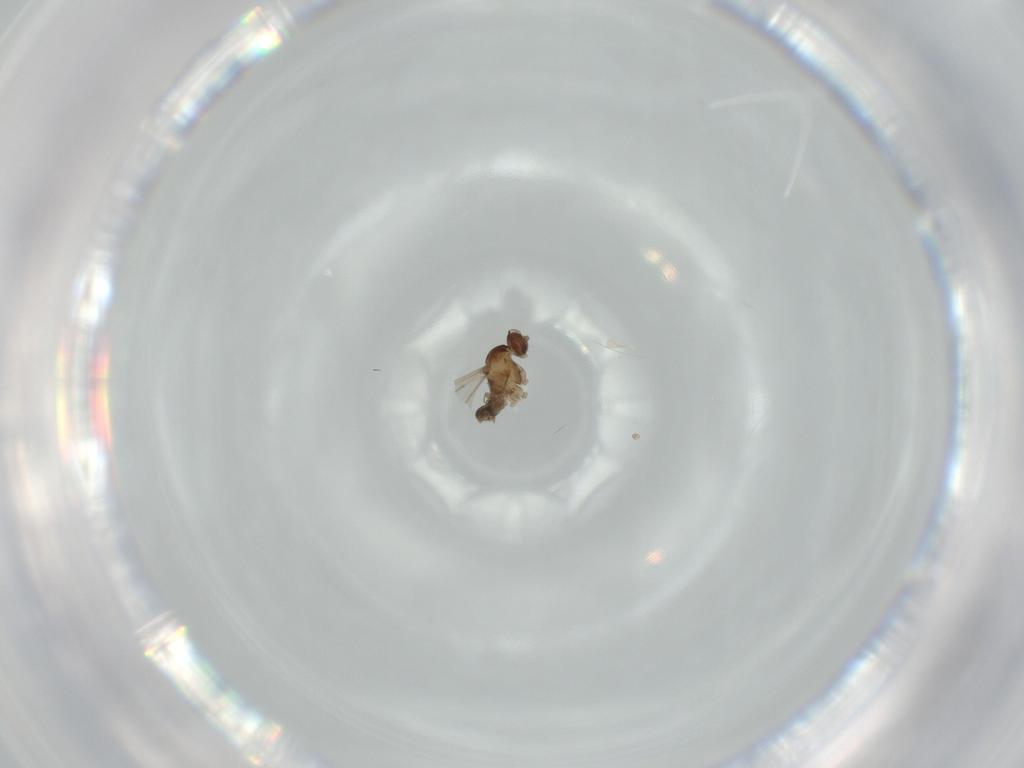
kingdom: Animalia
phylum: Arthropoda
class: Insecta
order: Diptera
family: Cecidomyiidae
